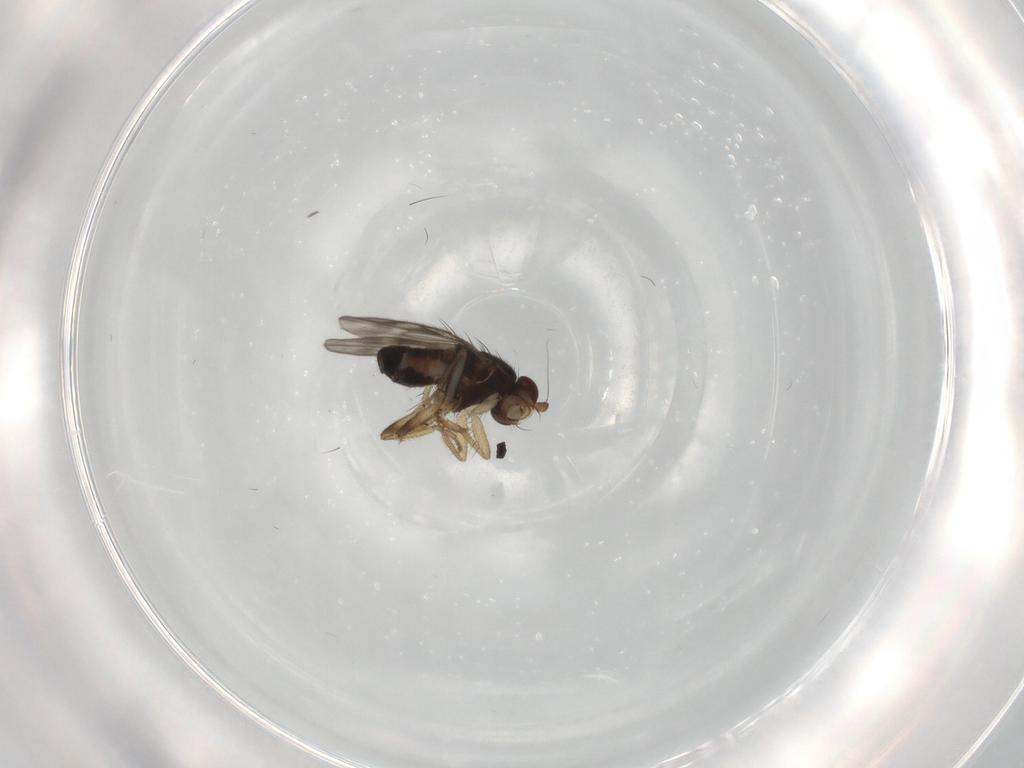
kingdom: Animalia
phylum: Arthropoda
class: Insecta
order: Diptera
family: Sphaeroceridae
